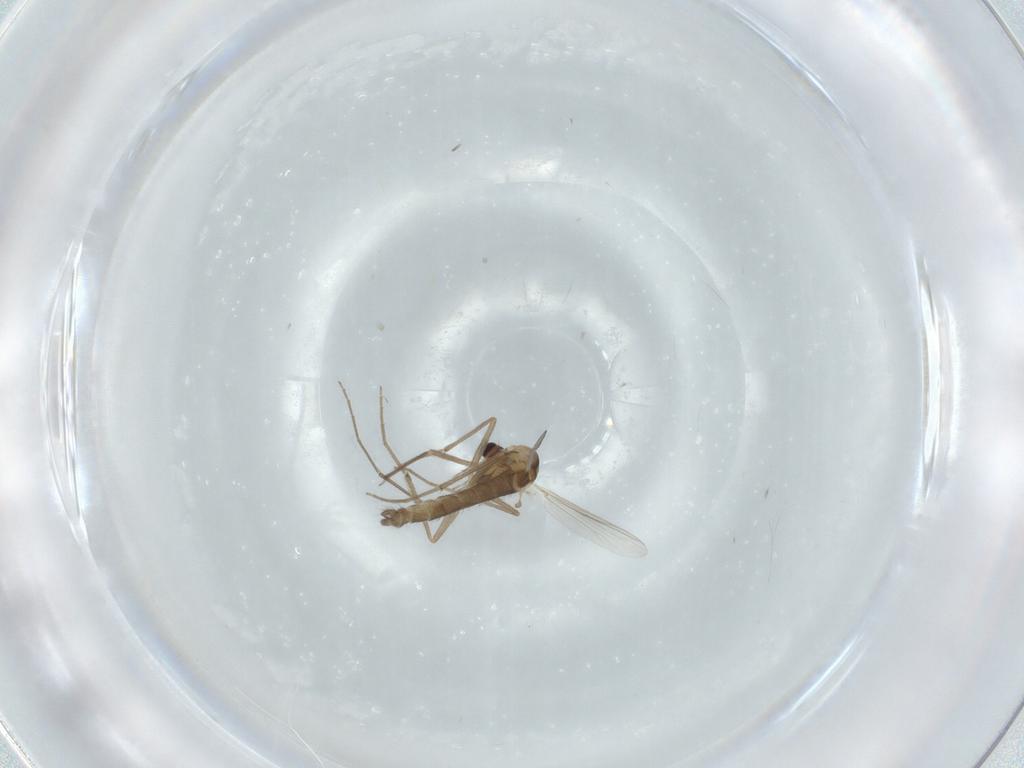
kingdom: Animalia
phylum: Arthropoda
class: Insecta
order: Diptera
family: Chironomidae
